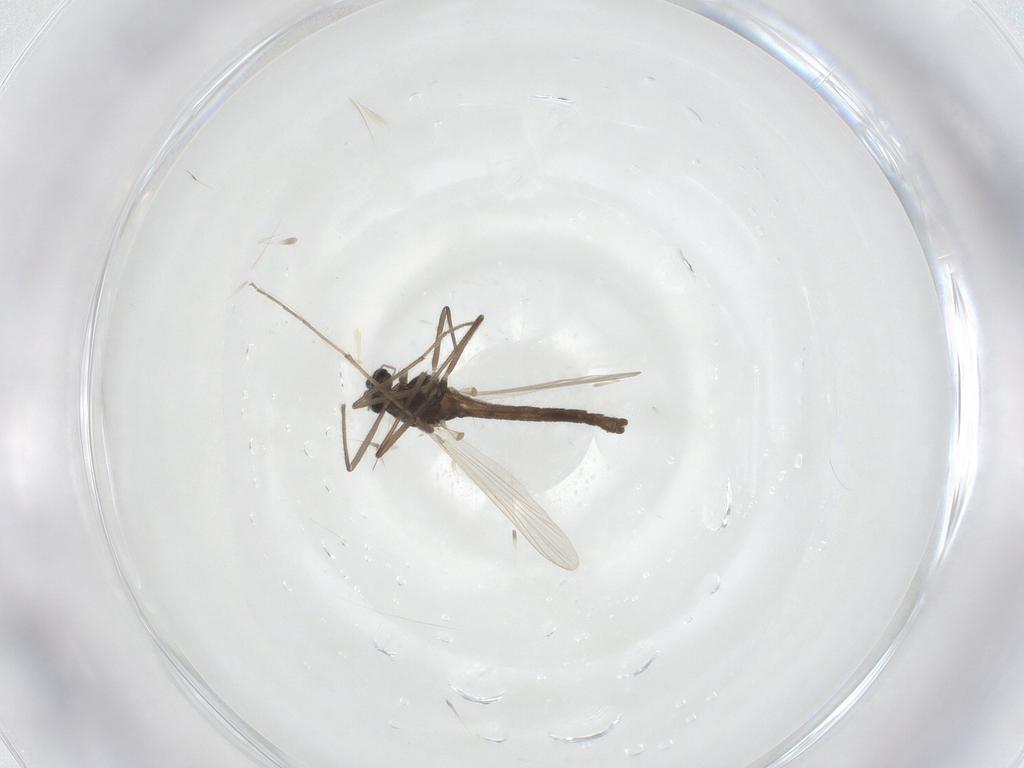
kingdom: Animalia
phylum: Arthropoda
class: Insecta
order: Diptera
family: Chironomidae
